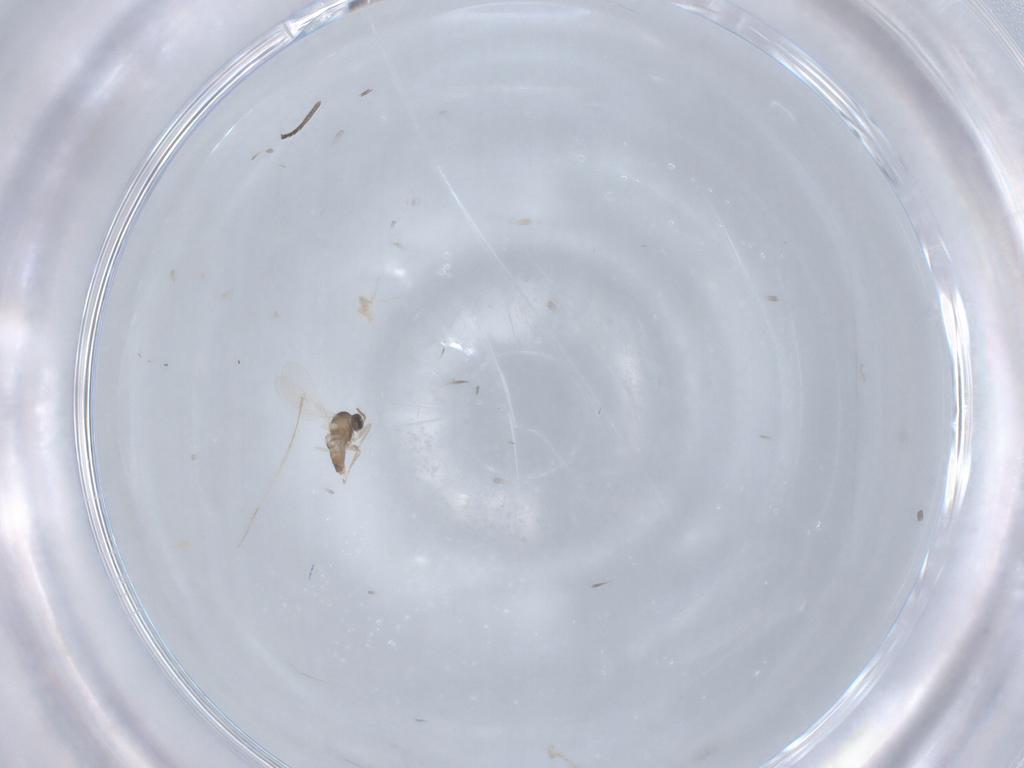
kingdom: Animalia
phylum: Arthropoda
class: Insecta
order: Diptera
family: Cecidomyiidae
